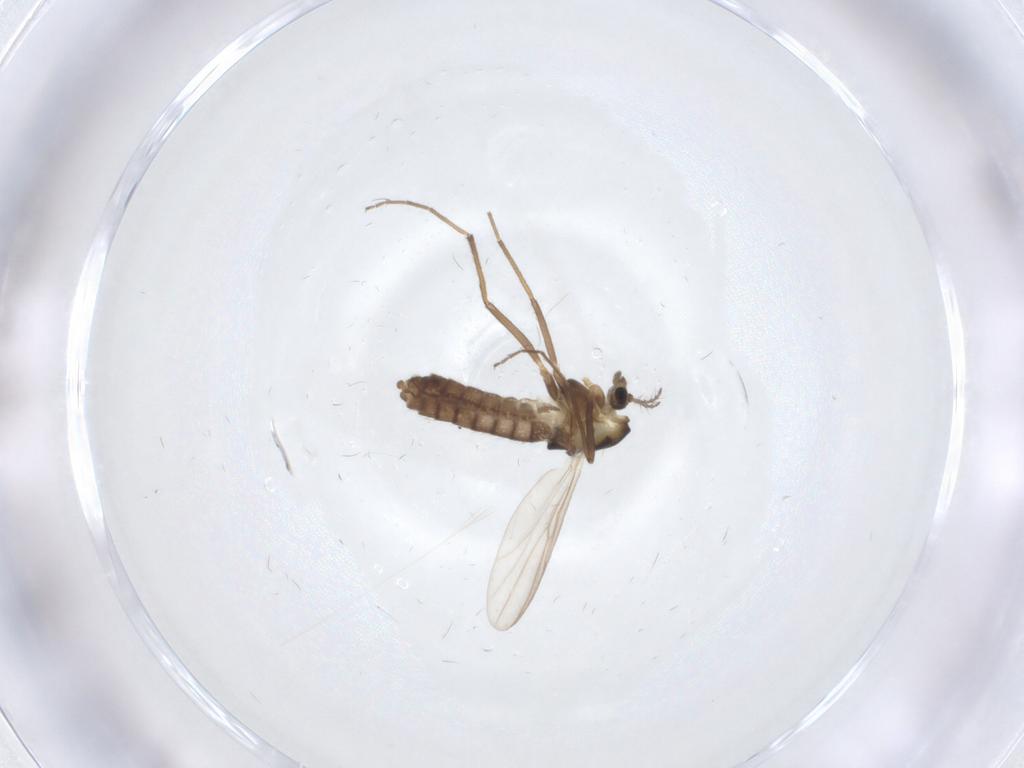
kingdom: Animalia
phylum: Arthropoda
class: Insecta
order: Diptera
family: Chironomidae
